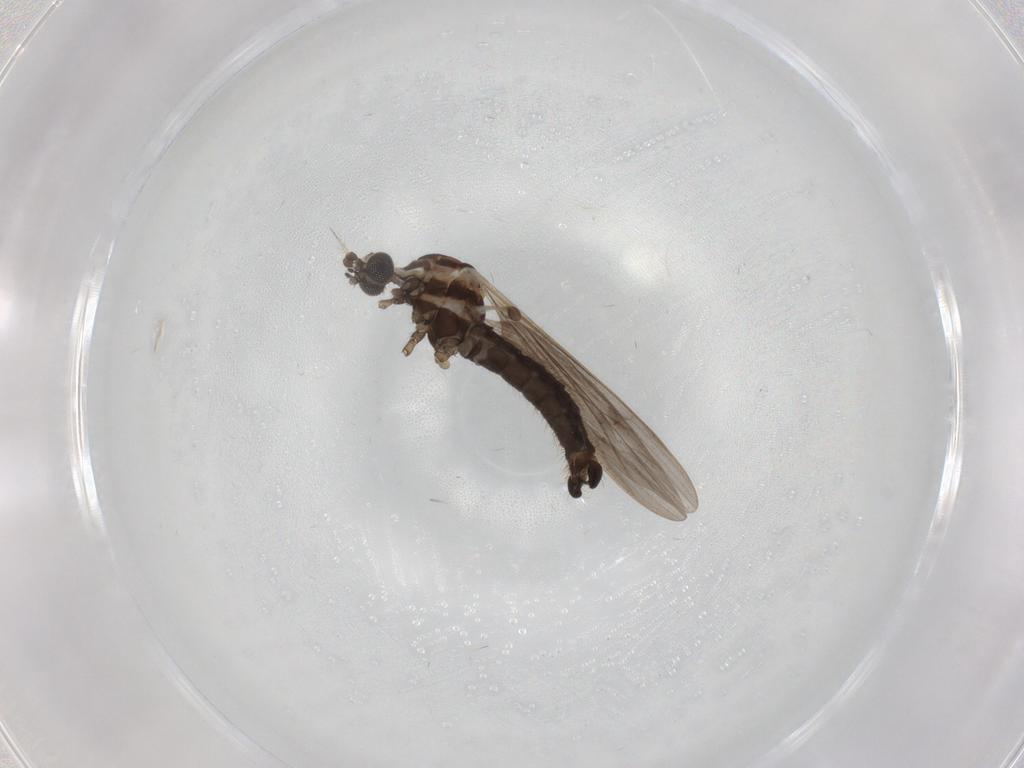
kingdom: Animalia
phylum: Arthropoda
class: Insecta
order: Diptera
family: Limoniidae
